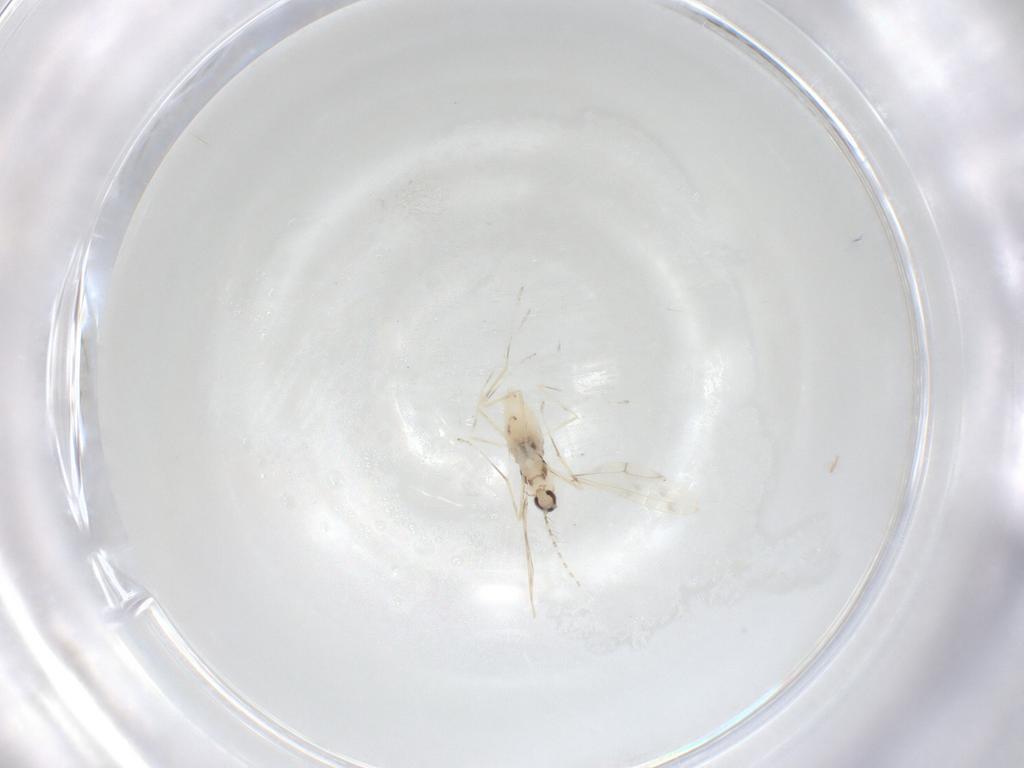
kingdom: Animalia
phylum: Arthropoda
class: Insecta
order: Diptera
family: Cecidomyiidae
